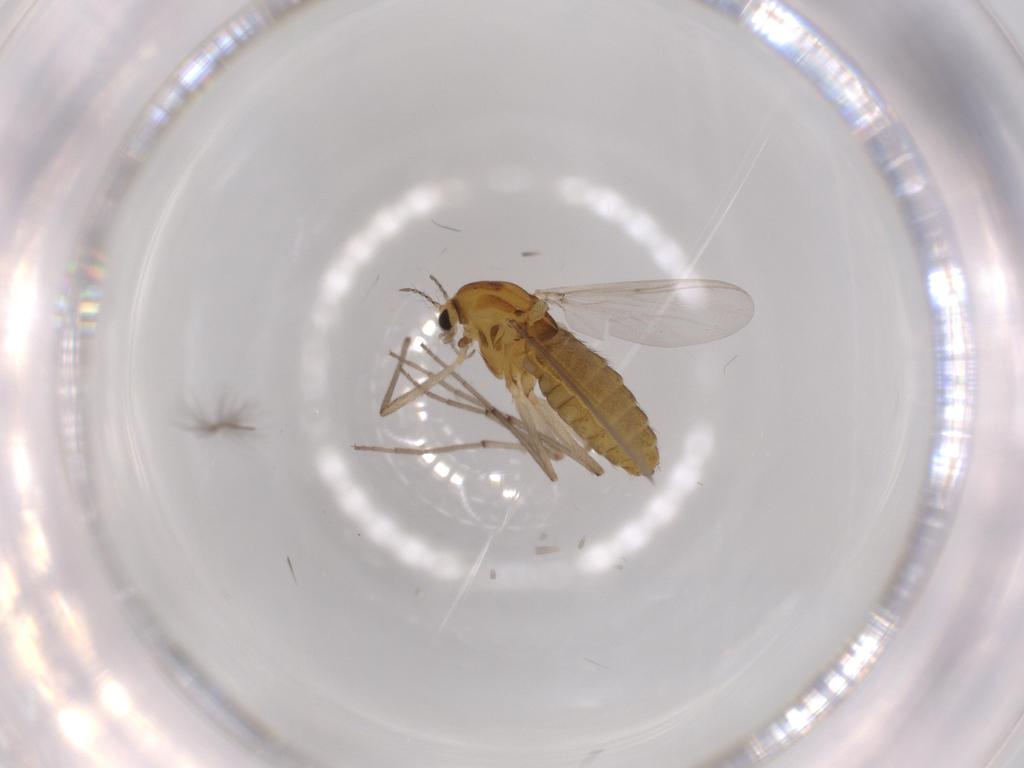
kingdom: Animalia
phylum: Arthropoda
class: Insecta
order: Diptera
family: Chironomidae
